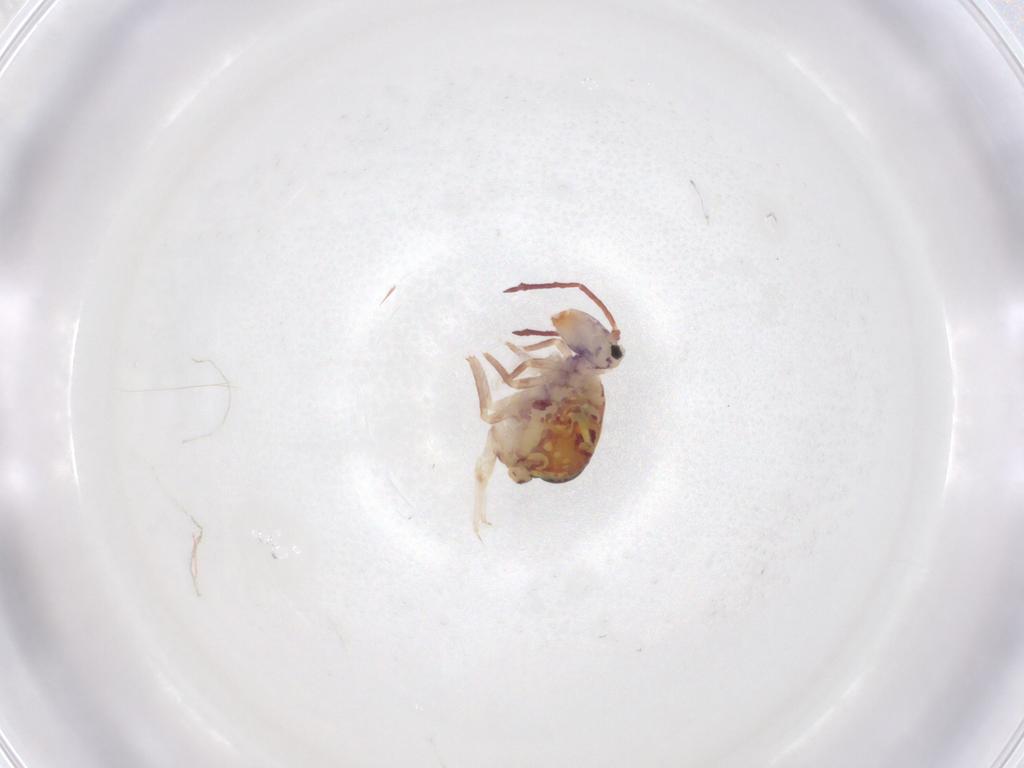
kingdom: Animalia
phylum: Arthropoda
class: Collembola
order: Symphypleona
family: Dicyrtomidae
